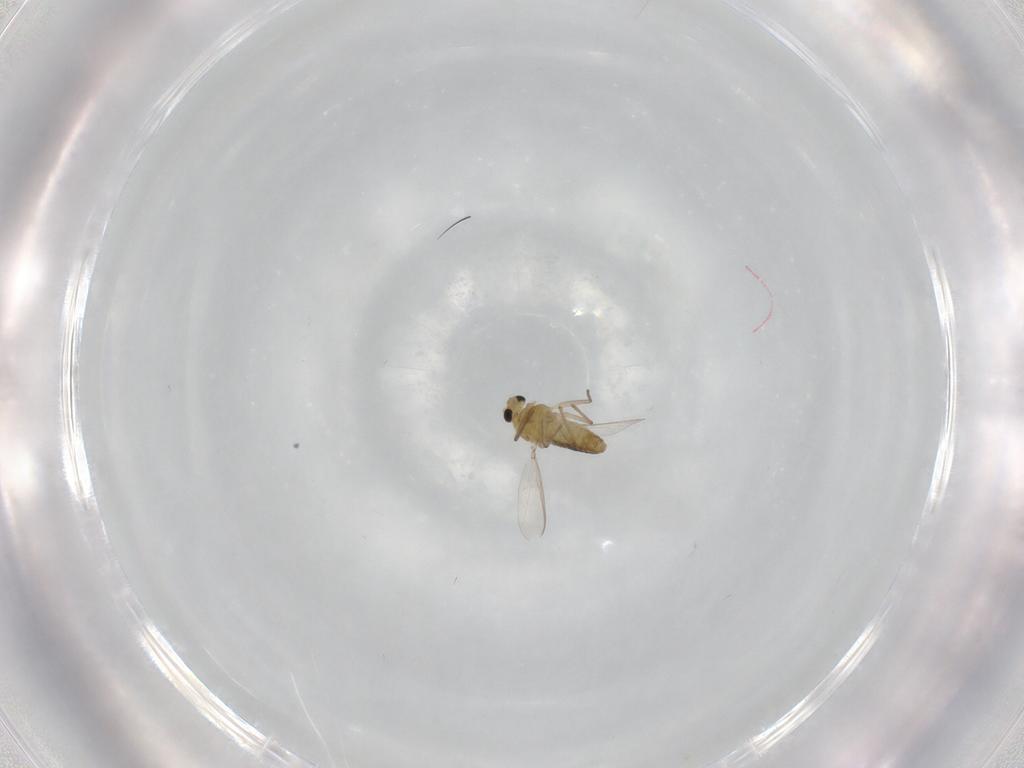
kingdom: Animalia
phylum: Arthropoda
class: Insecta
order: Diptera
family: Chironomidae
